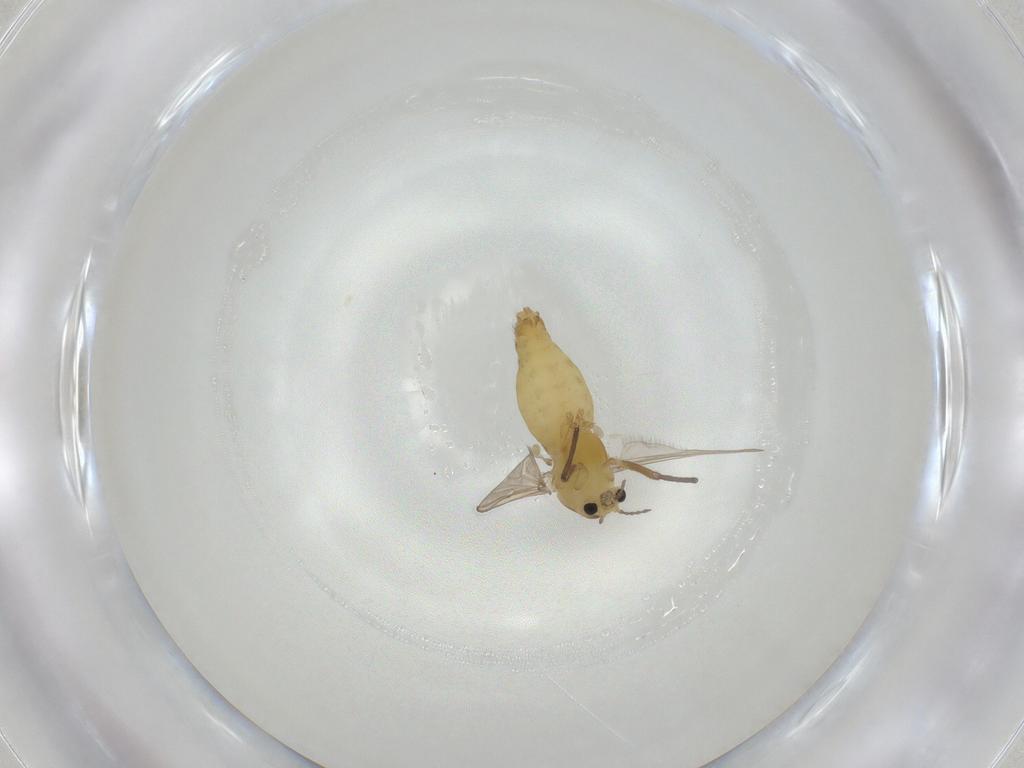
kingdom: Animalia
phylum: Arthropoda
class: Insecta
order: Diptera
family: Chironomidae
